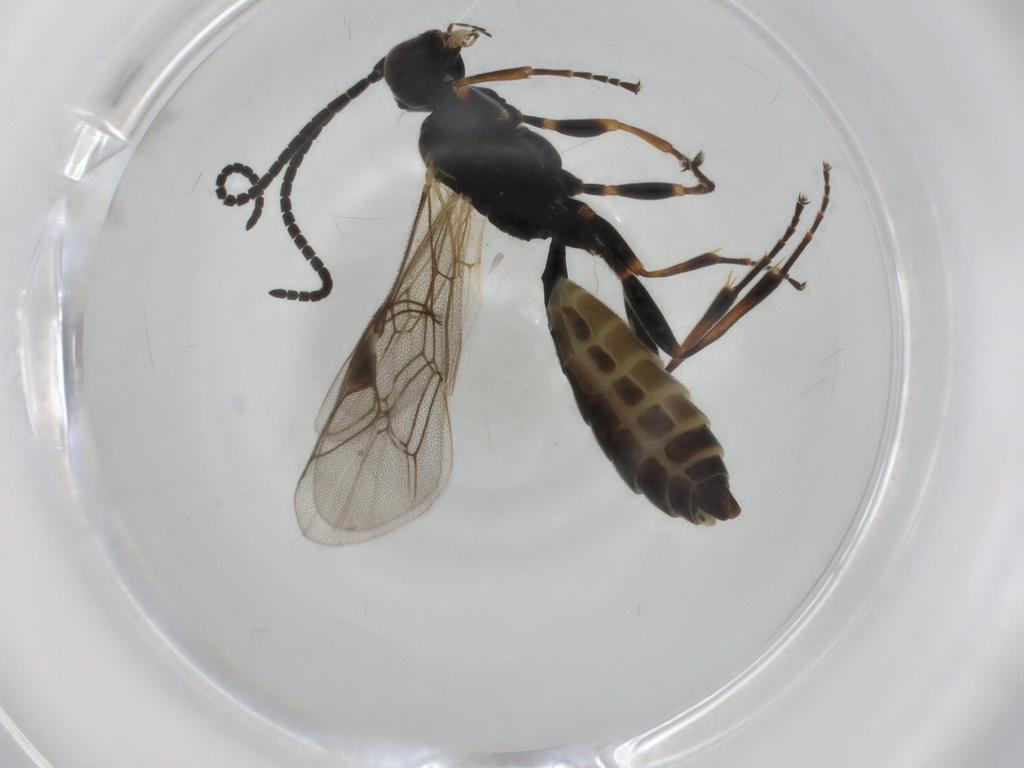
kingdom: Animalia
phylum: Arthropoda
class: Insecta
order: Hymenoptera
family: Ichneumonidae
